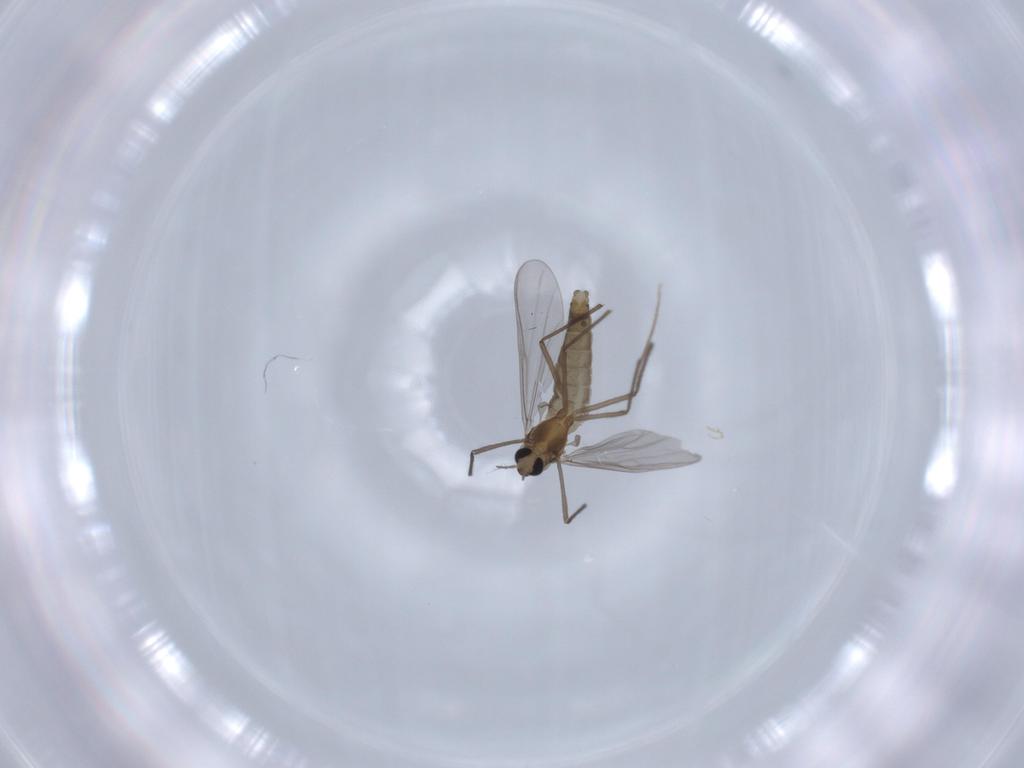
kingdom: Animalia
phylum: Arthropoda
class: Insecta
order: Diptera
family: Chironomidae
